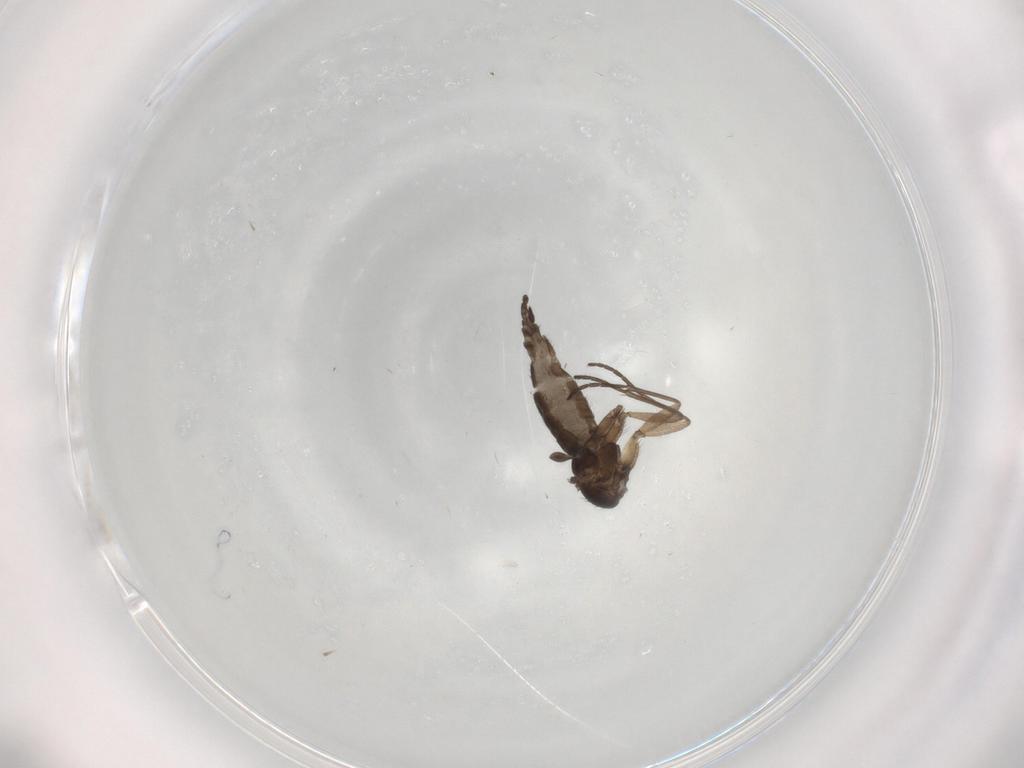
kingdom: Animalia
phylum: Arthropoda
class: Insecta
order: Diptera
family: Sciaridae
